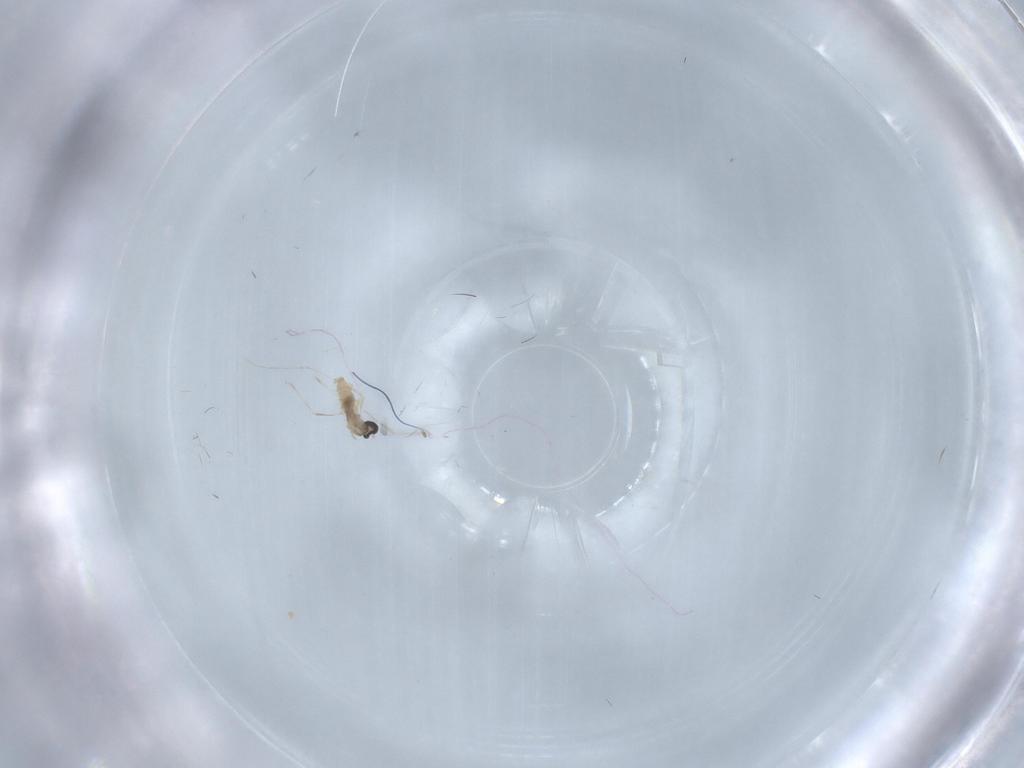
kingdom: Animalia
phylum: Arthropoda
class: Insecta
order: Diptera
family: Cecidomyiidae
